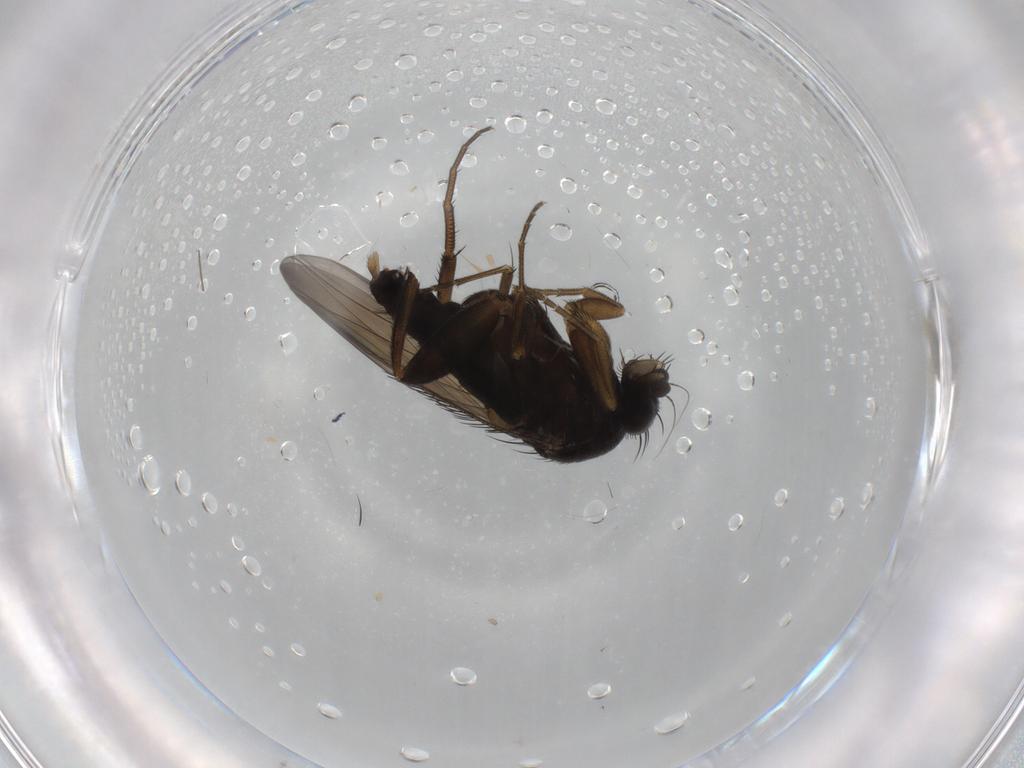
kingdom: Animalia
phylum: Arthropoda
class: Insecta
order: Diptera
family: Phoridae
